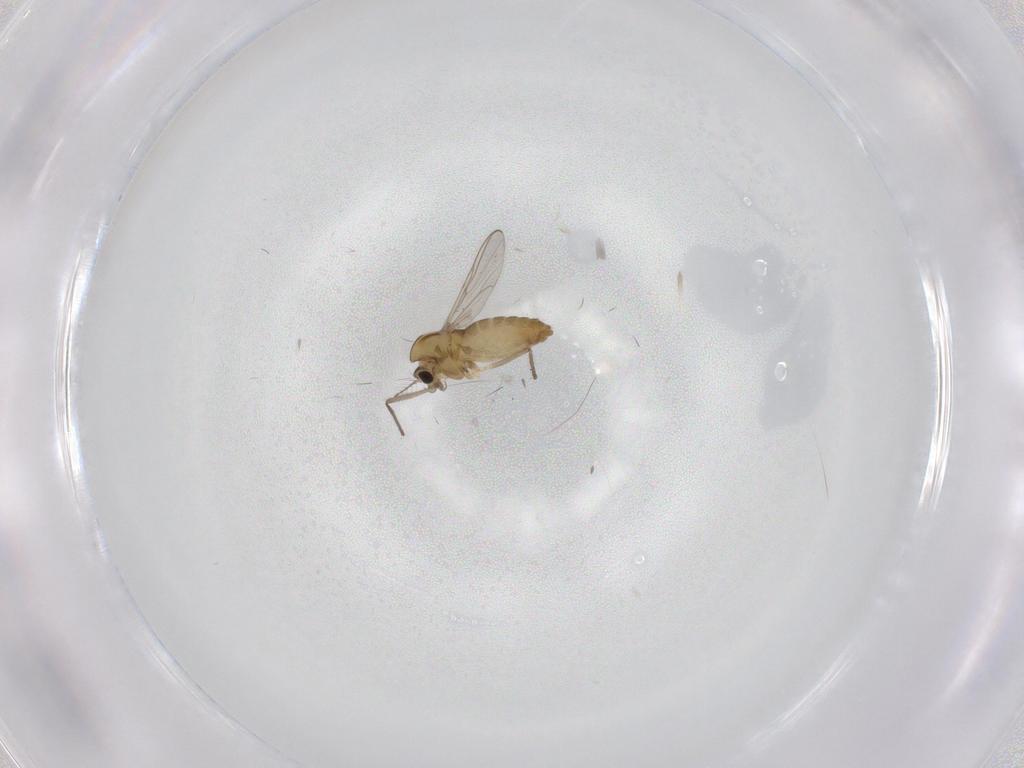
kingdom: Animalia
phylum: Arthropoda
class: Insecta
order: Diptera
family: Chironomidae
